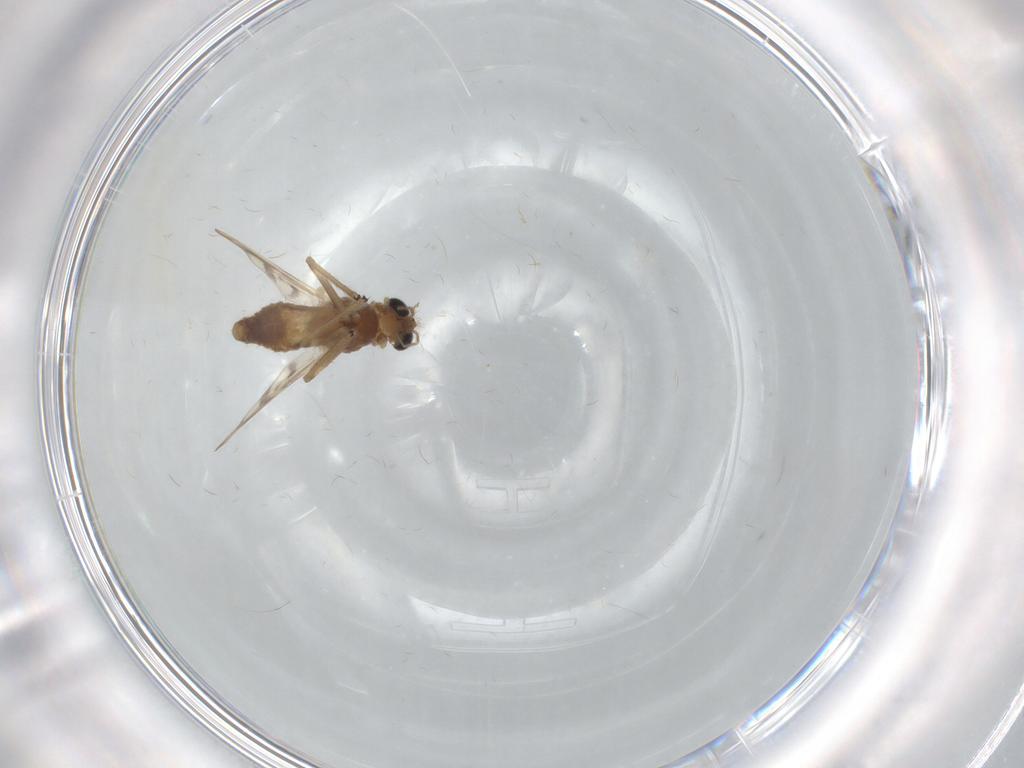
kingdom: Animalia
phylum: Arthropoda
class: Insecta
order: Diptera
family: Chironomidae
